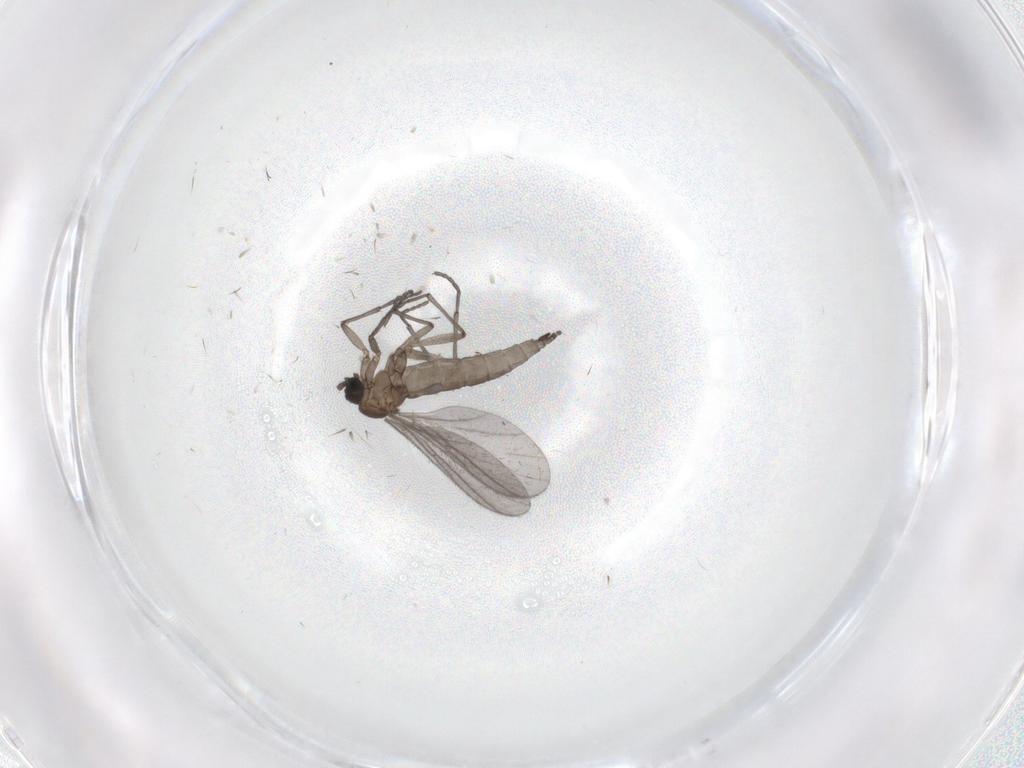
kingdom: Animalia
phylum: Arthropoda
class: Insecta
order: Diptera
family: Sciaridae
